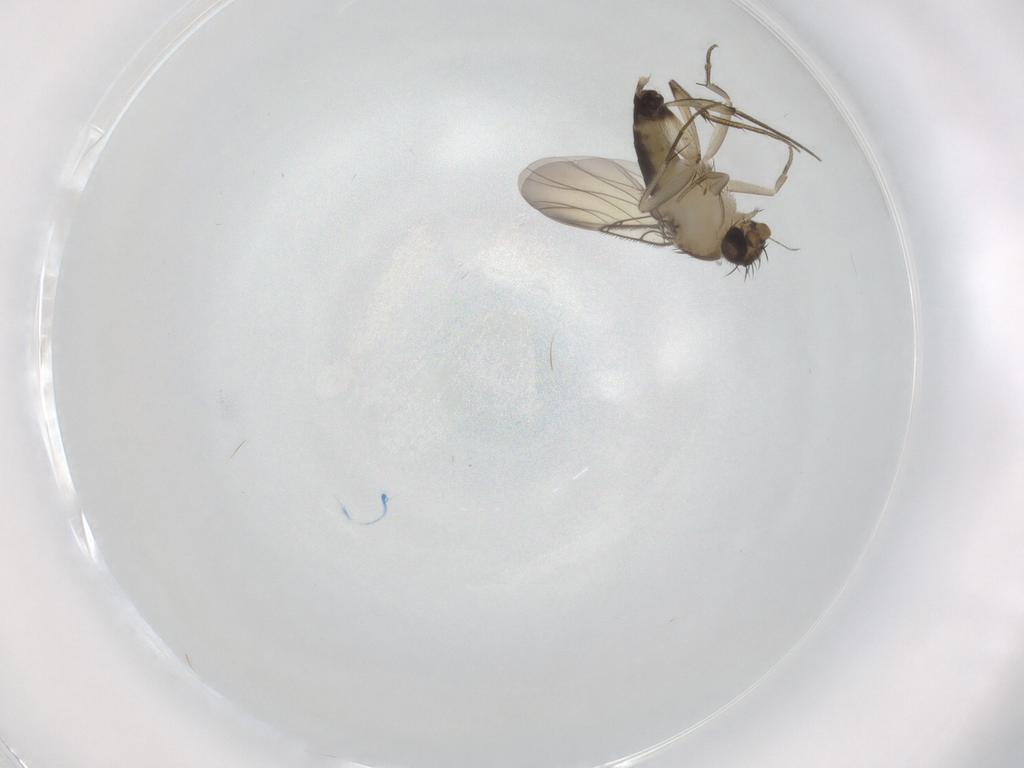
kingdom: Animalia
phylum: Arthropoda
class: Insecta
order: Diptera
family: Phoridae
